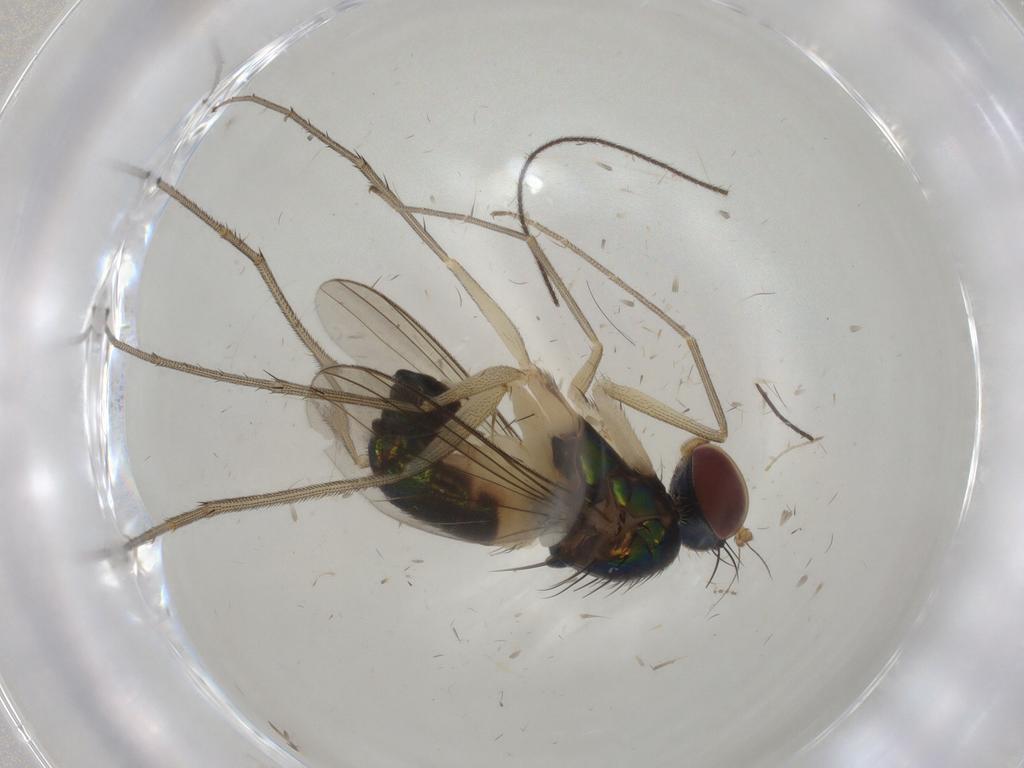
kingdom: Animalia
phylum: Arthropoda
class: Insecta
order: Diptera
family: Dolichopodidae
